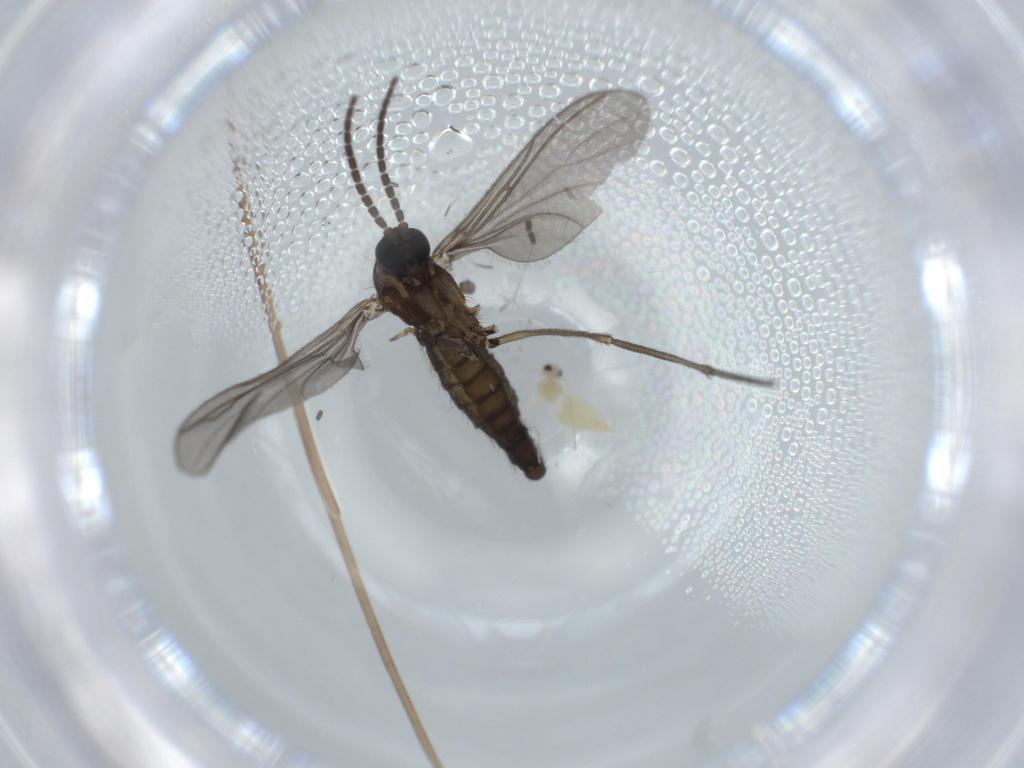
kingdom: Animalia
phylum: Arthropoda
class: Insecta
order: Diptera
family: Sciaridae
